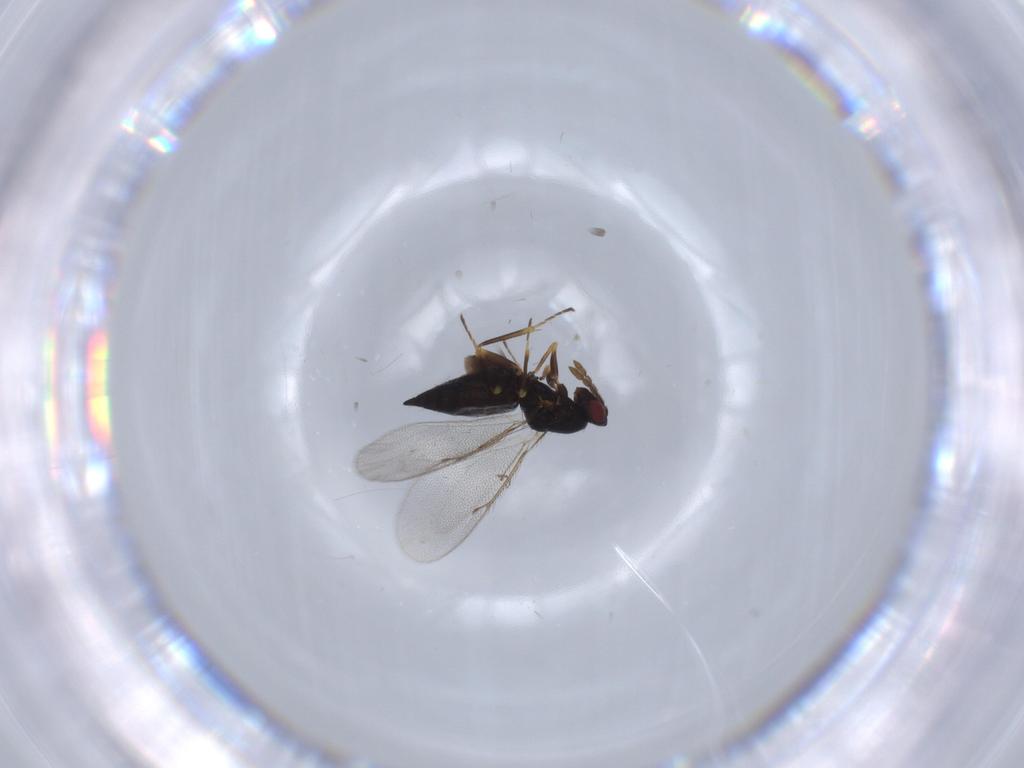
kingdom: Animalia
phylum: Arthropoda
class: Insecta
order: Hymenoptera
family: Eulophidae
